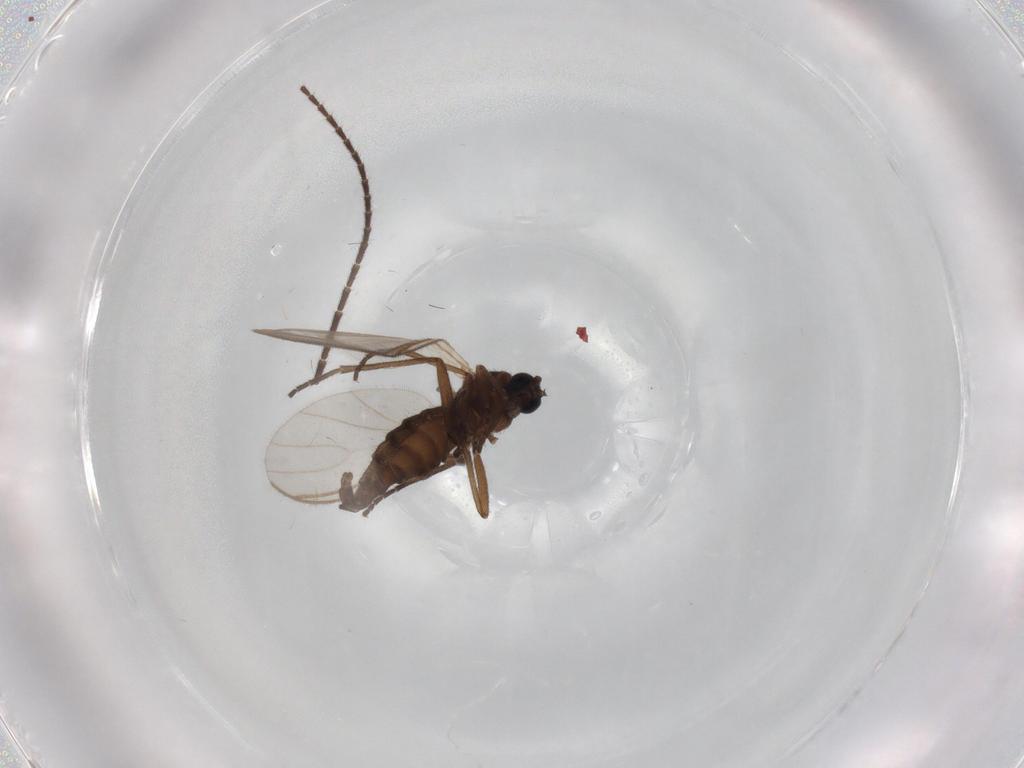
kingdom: Animalia
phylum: Arthropoda
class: Insecta
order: Diptera
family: Sciaridae
